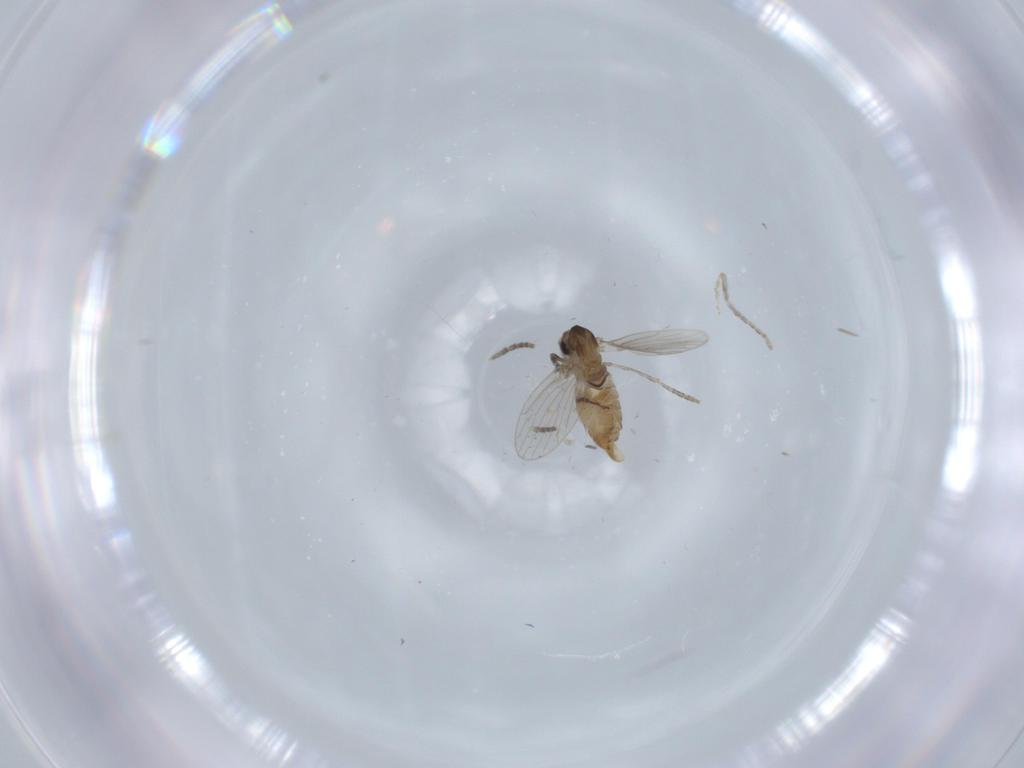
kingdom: Animalia
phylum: Arthropoda
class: Insecta
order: Diptera
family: Psychodidae
